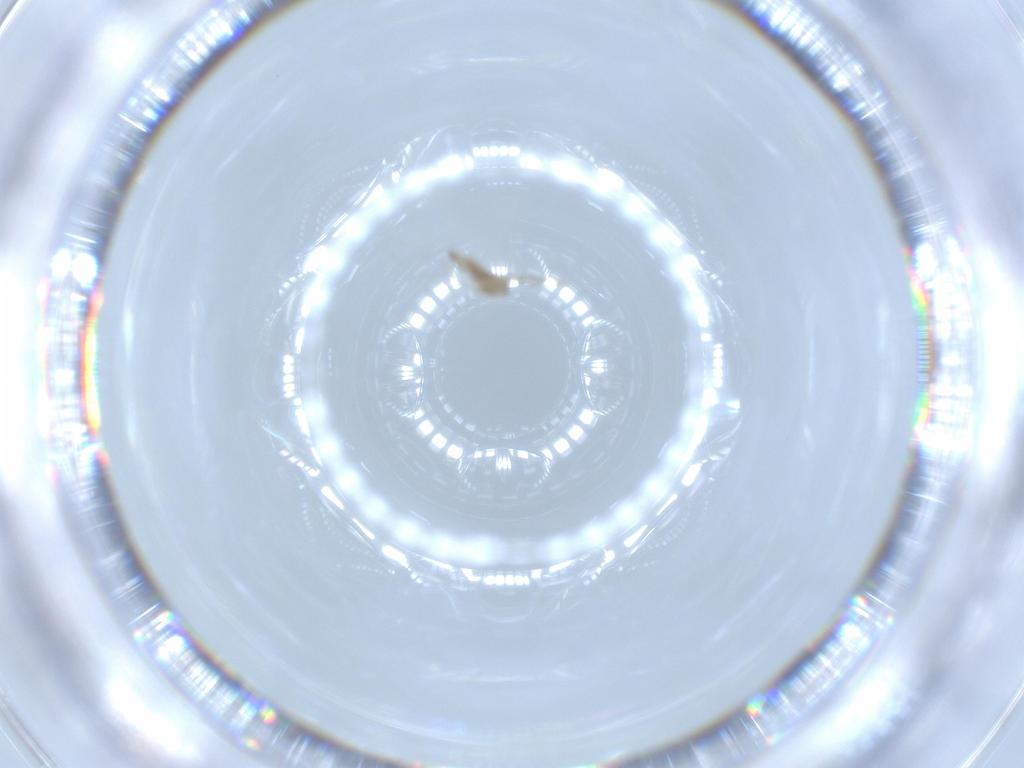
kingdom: Animalia
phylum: Arthropoda
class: Insecta
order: Diptera
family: Cecidomyiidae
